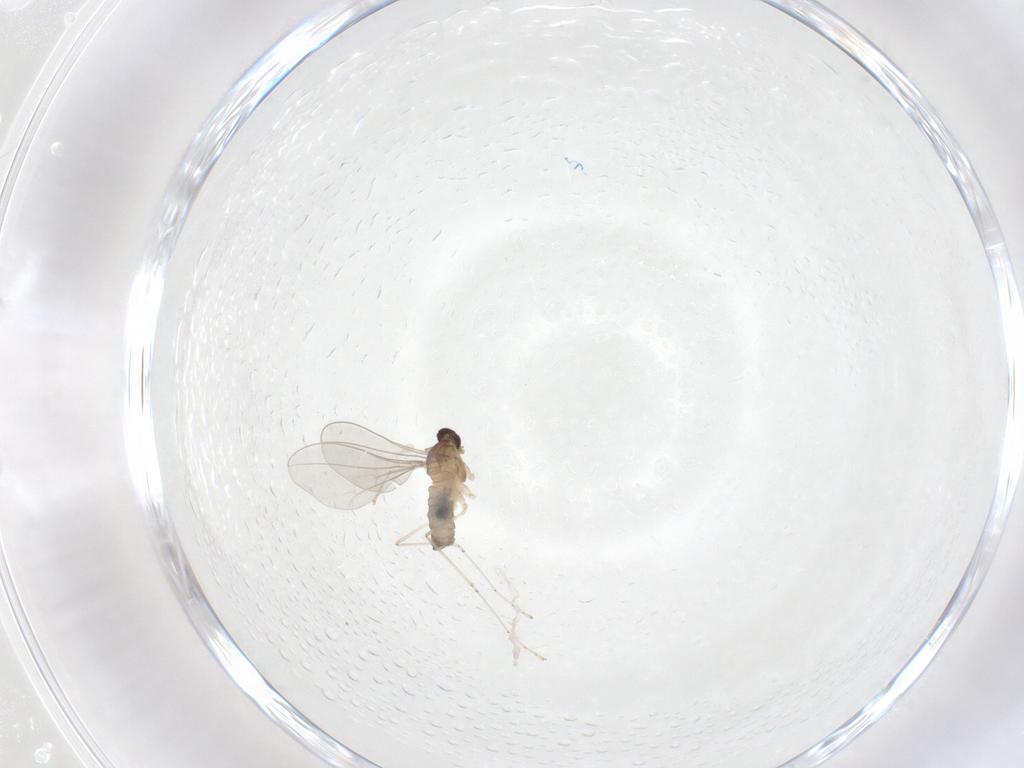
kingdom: Animalia
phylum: Arthropoda
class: Insecta
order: Diptera
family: Cecidomyiidae
